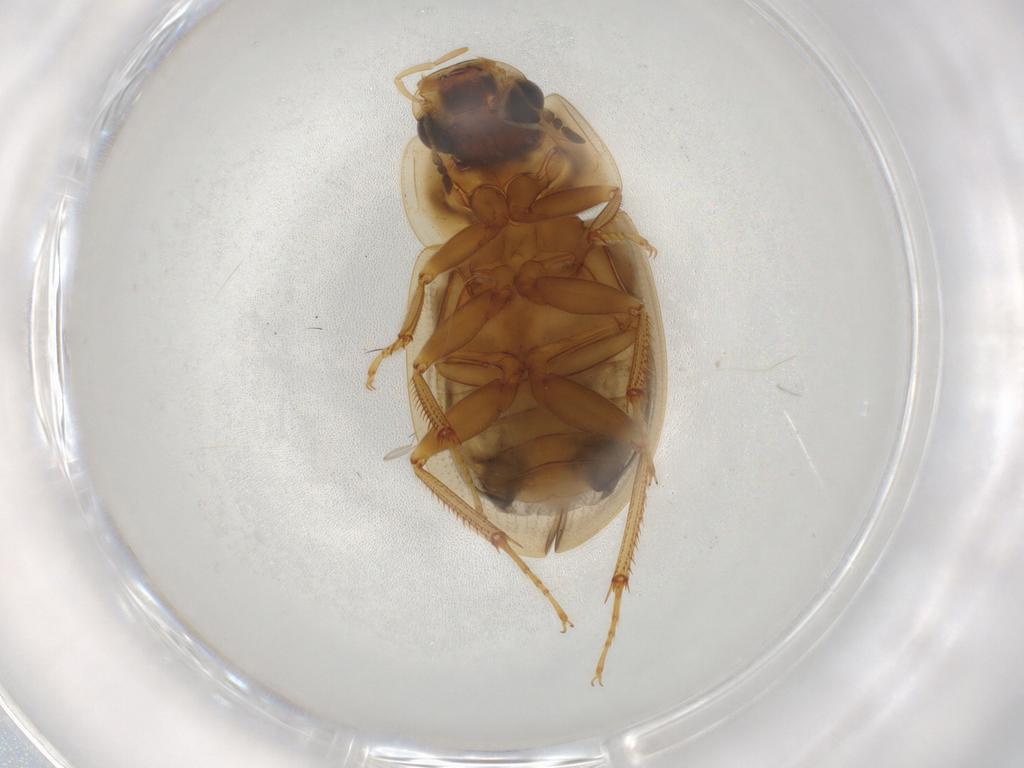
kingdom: Animalia
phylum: Arthropoda
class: Insecta
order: Coleoptera
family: Hydrophilidae
